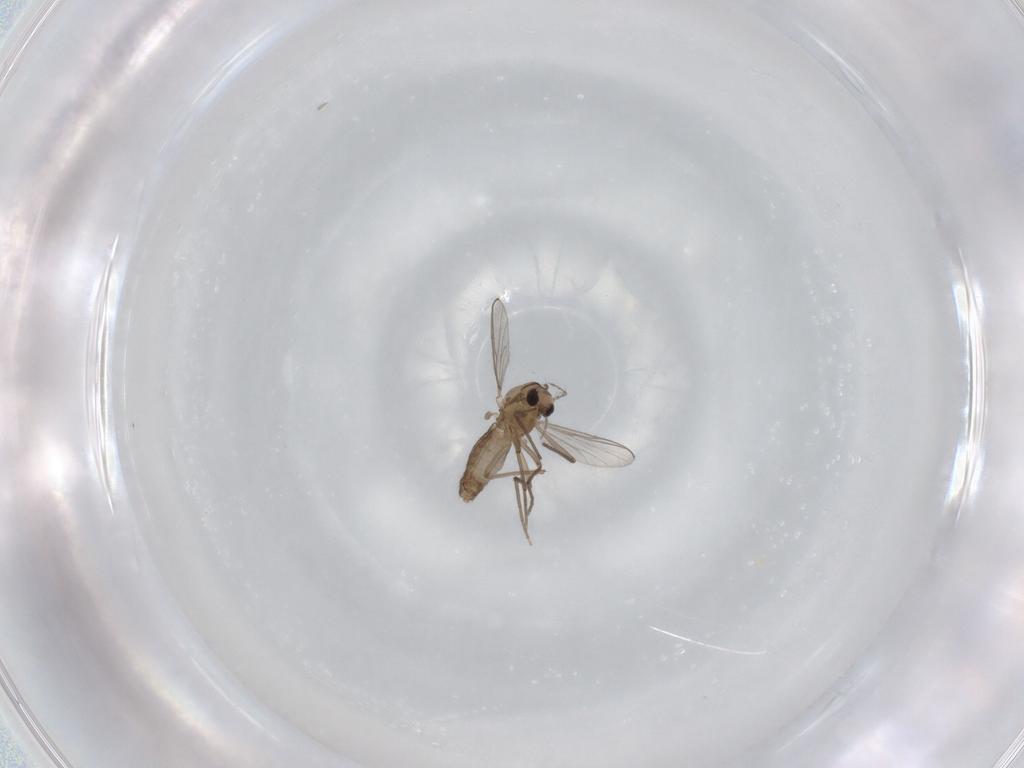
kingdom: Animalia
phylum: Arthropoda
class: Insecta
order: Diptera
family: Chironomidae
